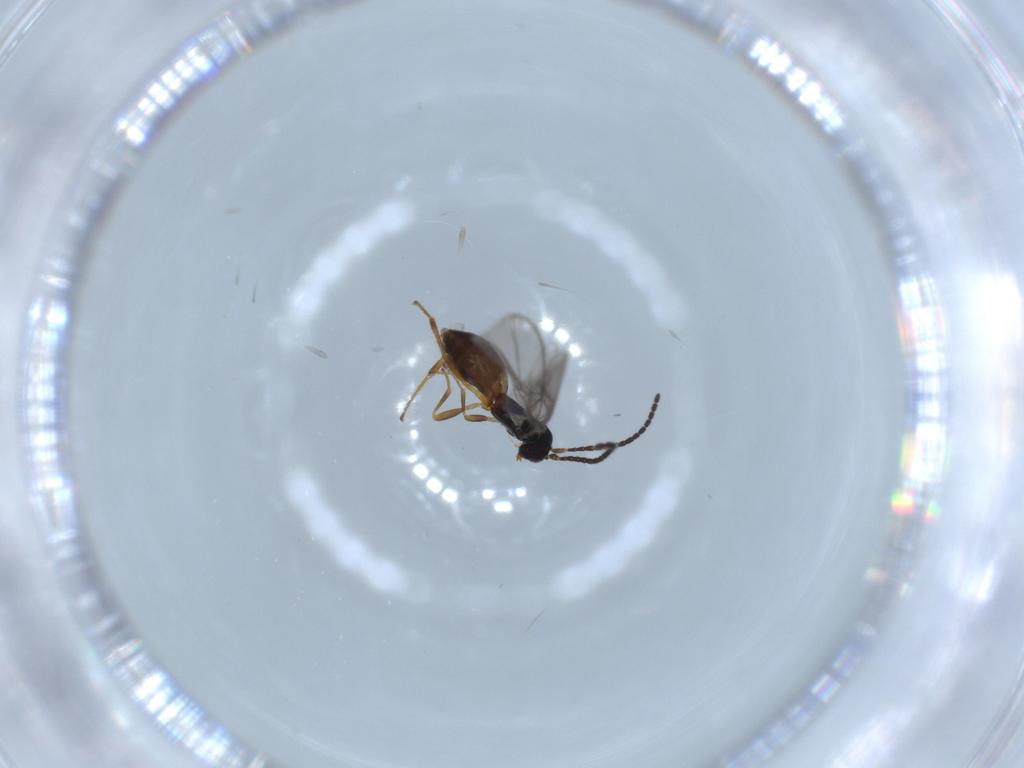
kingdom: Animalia
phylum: Arthropoda
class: Insecta
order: Hymenoptera
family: Braconidae
